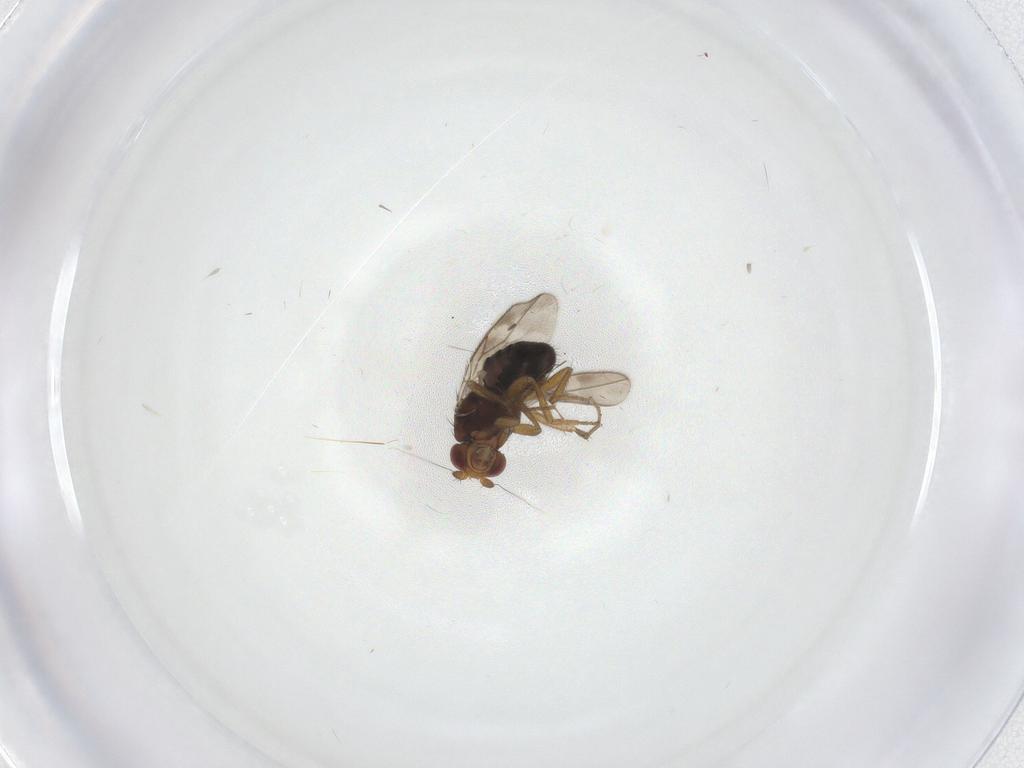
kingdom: Animalia
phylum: Arthropoda
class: Insecta
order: Diptera
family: Sphaeroceridae
